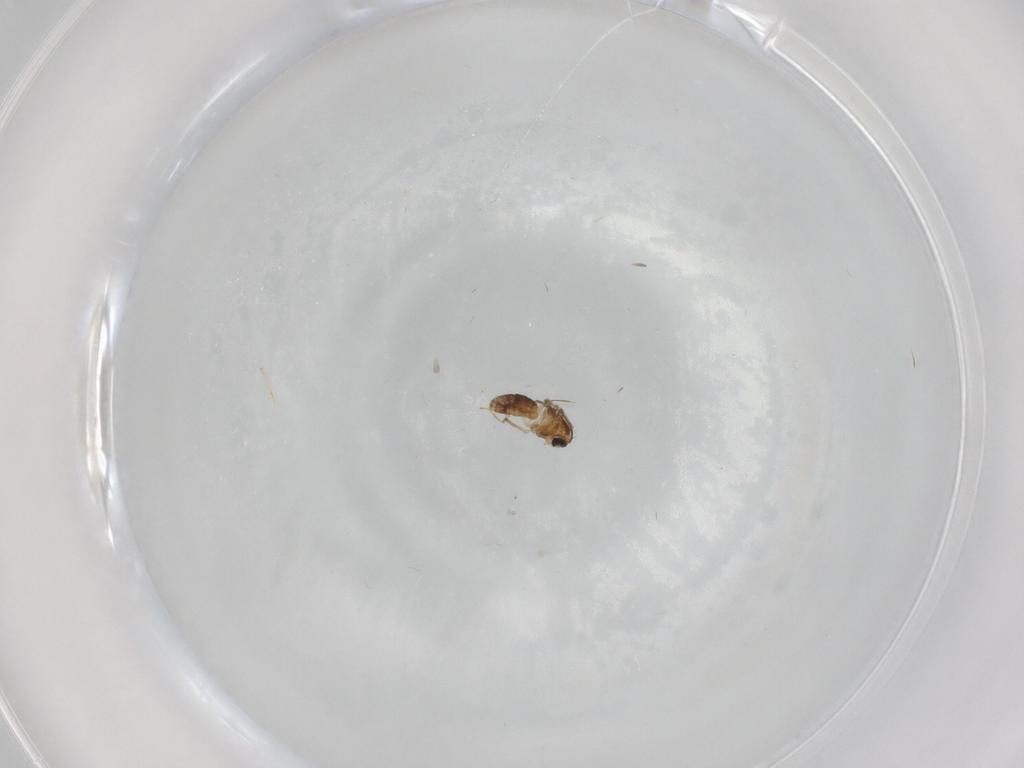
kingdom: Animalia
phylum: Arthropoda
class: Insecta
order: Diptera
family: Chironomidae
